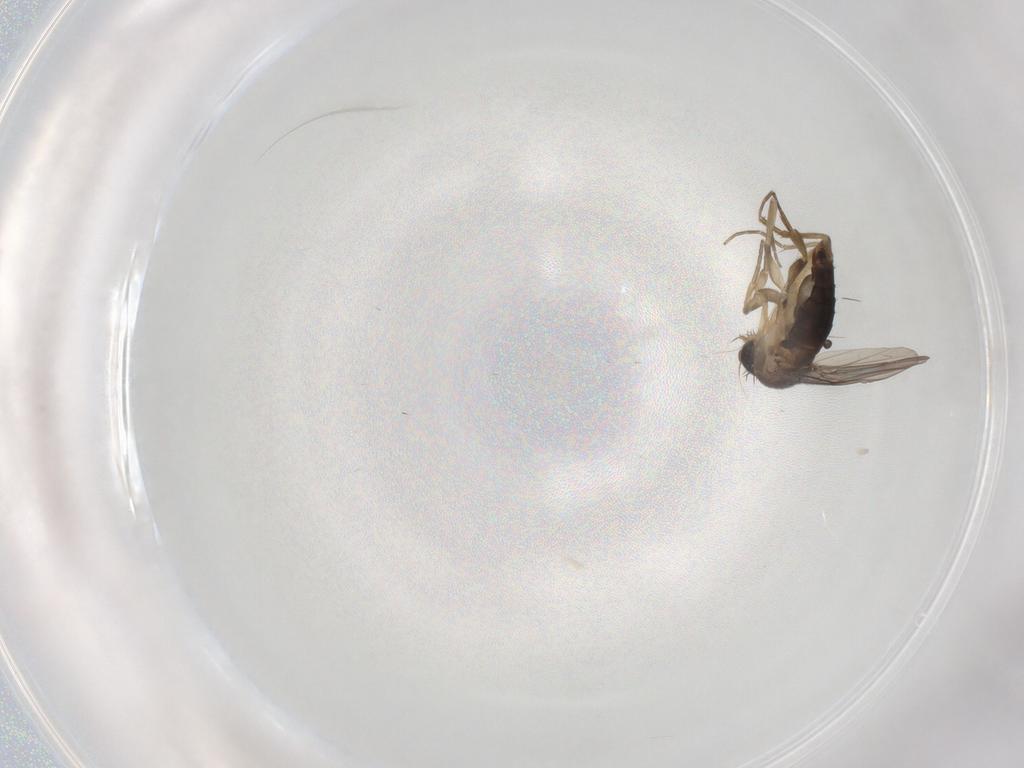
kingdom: Animalia
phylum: Arthropoda
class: Insecta
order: Diptera
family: Phoridae
